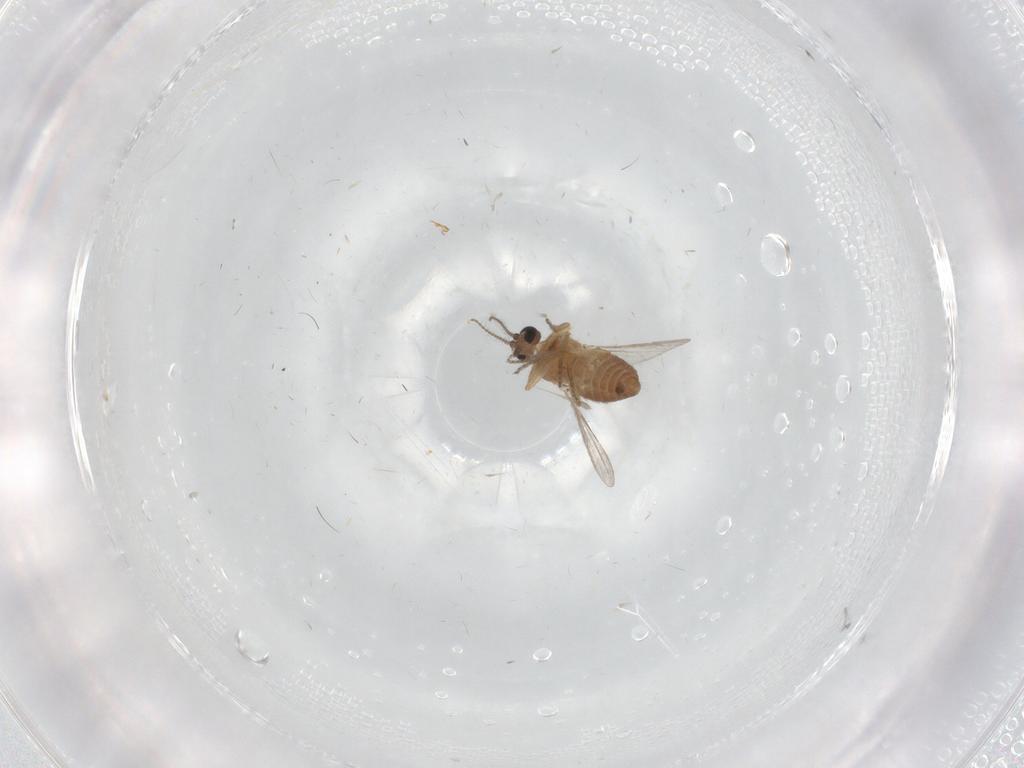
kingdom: Animalia
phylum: Arthropoda
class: Insecta
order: Diptera
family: Ceratopogonidae
